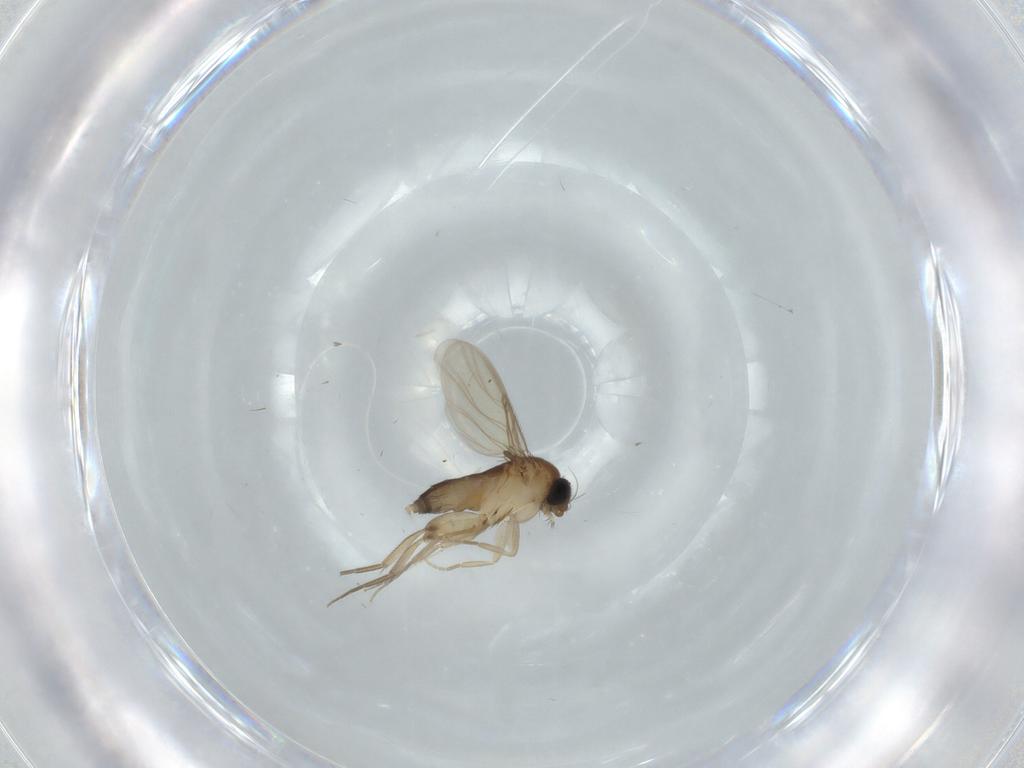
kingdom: Animalia
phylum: Arthropoda
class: Insecta
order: Diptera
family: Phoridae
